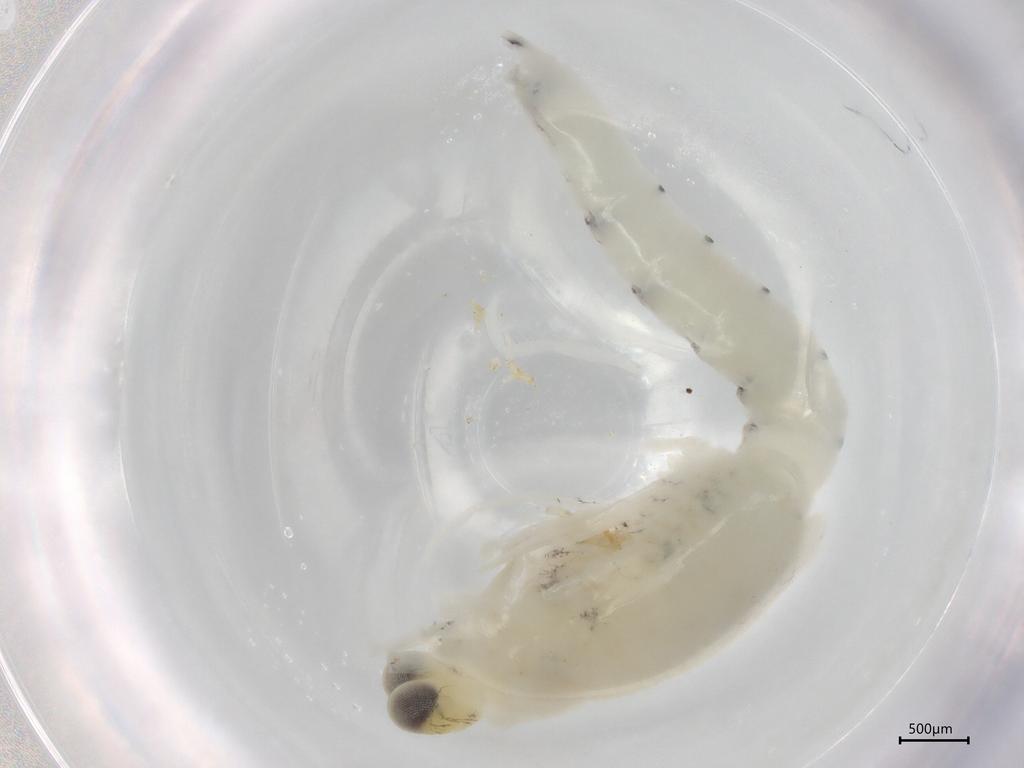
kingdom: Animalia
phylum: Arthropoda
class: Malacostraca
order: Mysida
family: Mysidae
